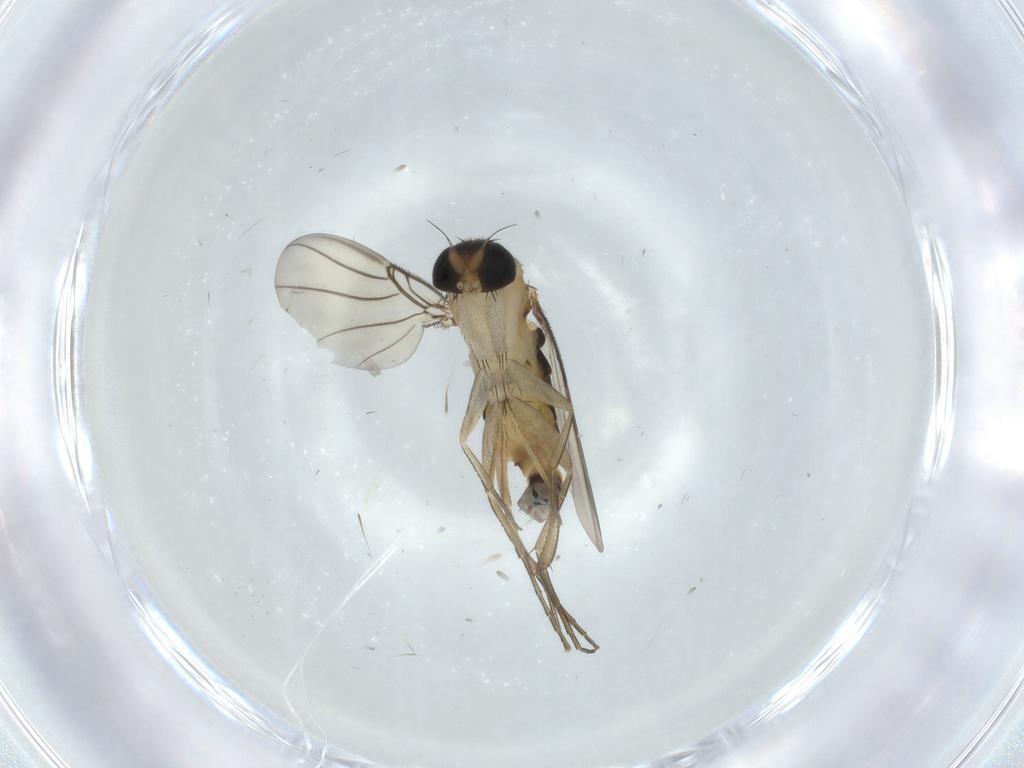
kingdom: Animalia
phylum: Arthropoda
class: Insecta
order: Diptera
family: Phoridae
